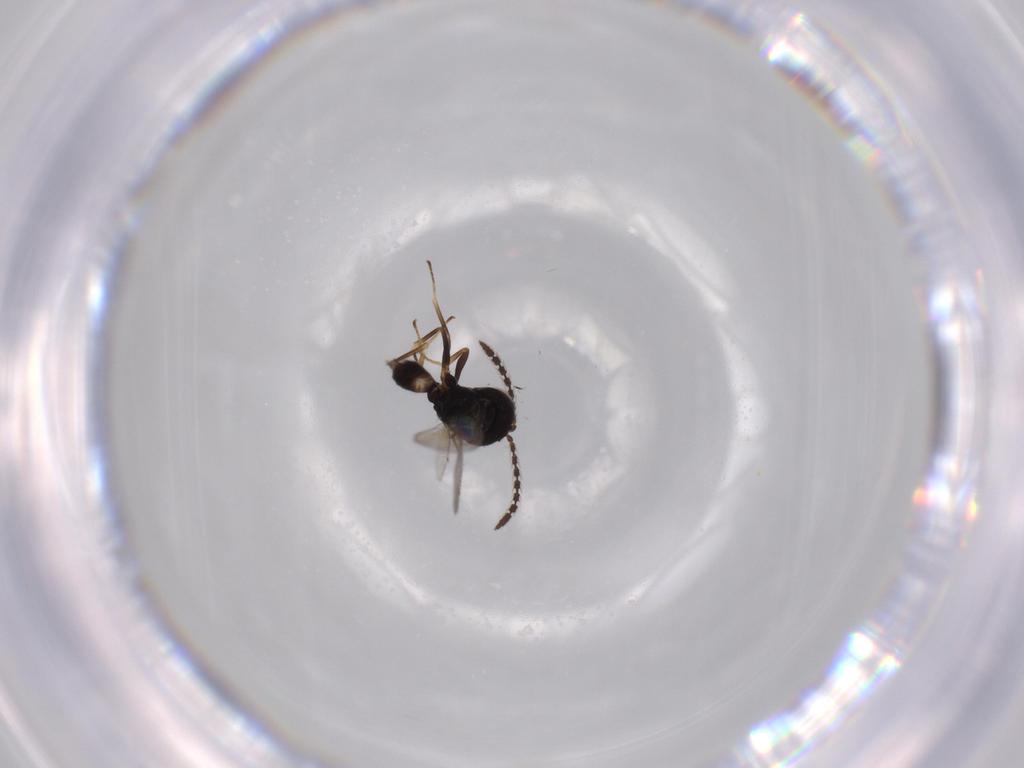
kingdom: Animalia
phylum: Arthropoda
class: Insecta
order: Hymenoptera
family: Pteromalidae
